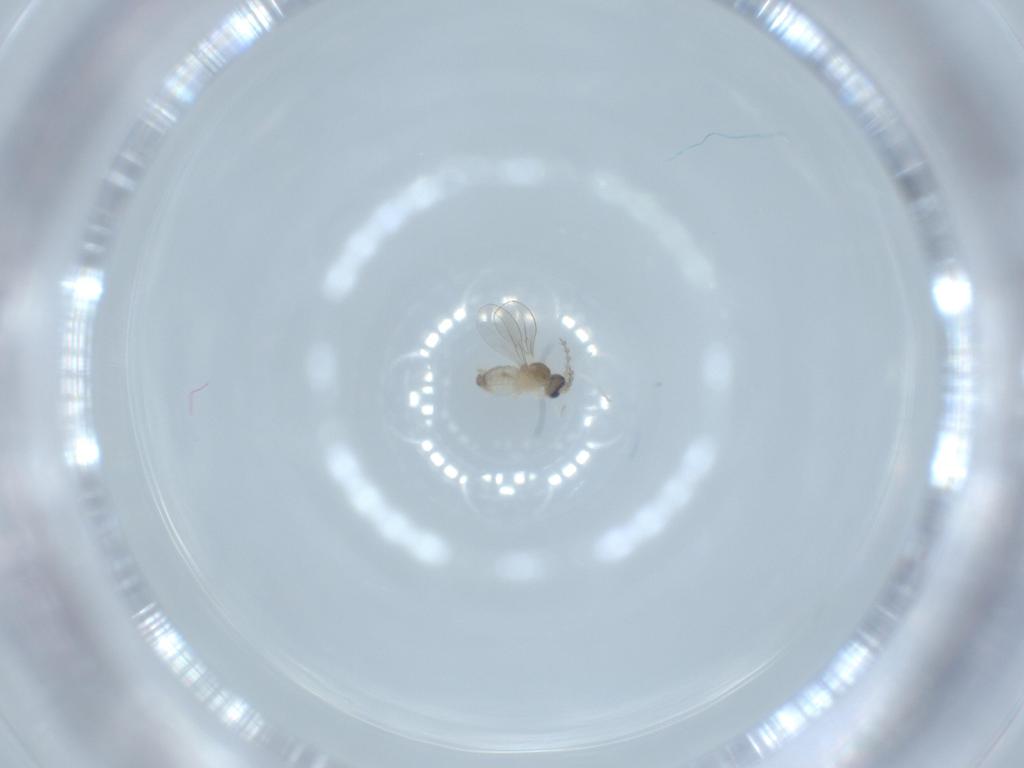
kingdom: Animalia
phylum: Arthropoda
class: Insecta
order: Diptera
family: Cecidomyiidae
